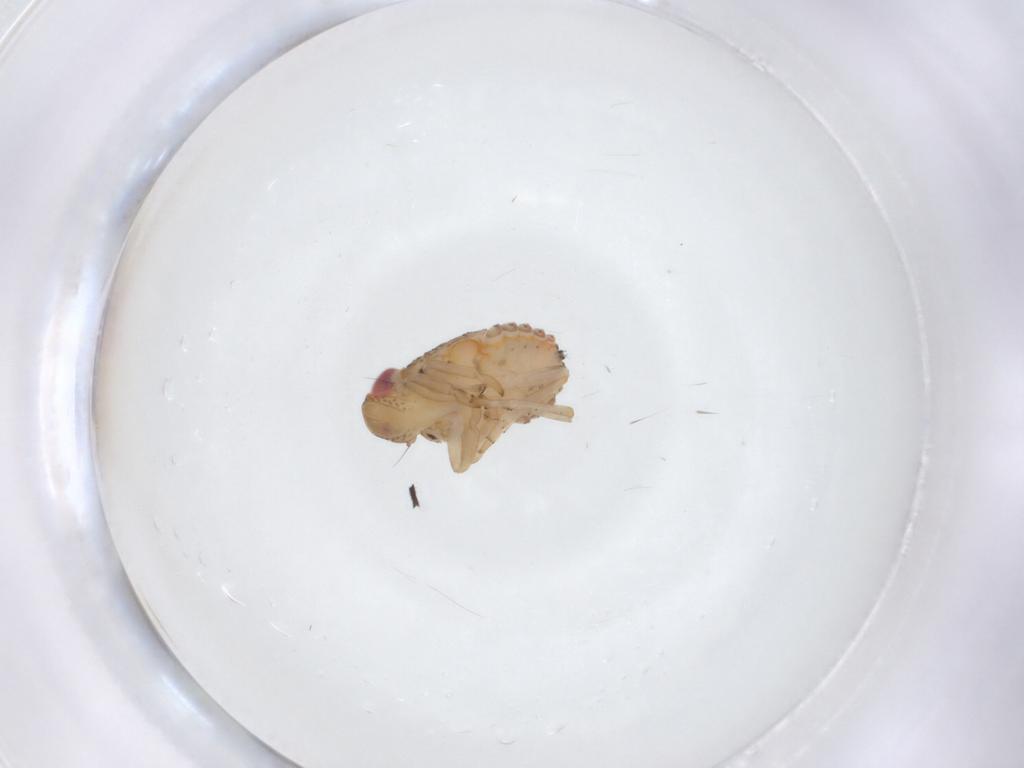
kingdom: Animalia
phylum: Arthropoda
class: Insecta
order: Hemiptera
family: Issidae
